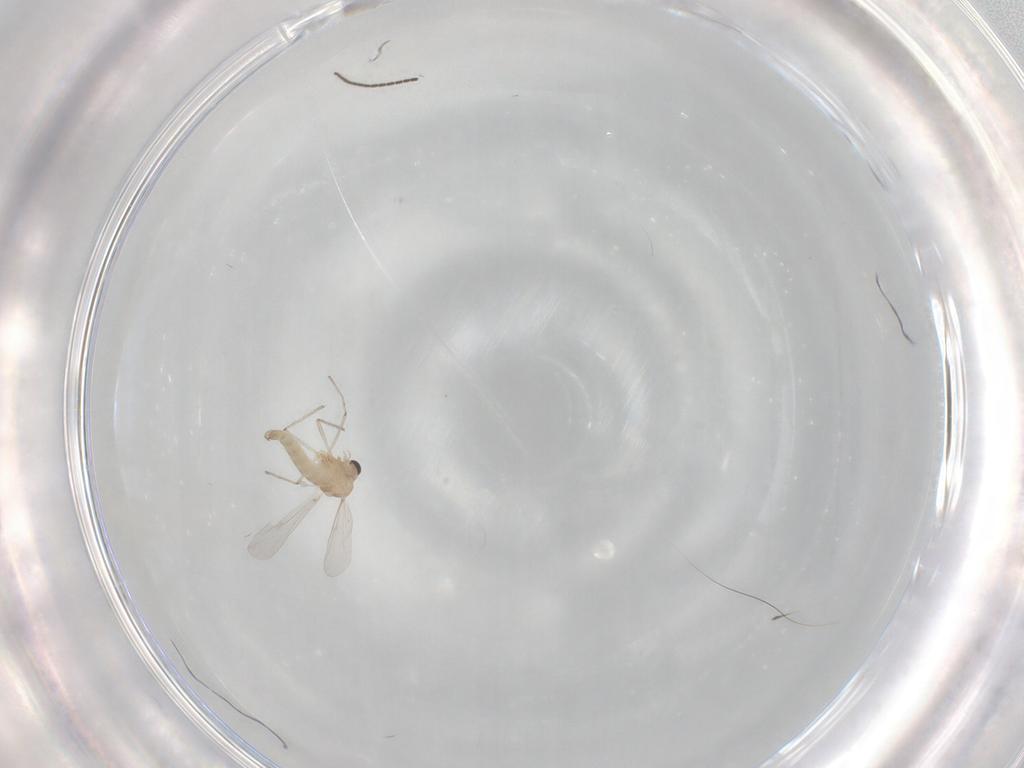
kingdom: Animalia
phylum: Arthropoda
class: Insecta
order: Diptera
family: Chironomidae
